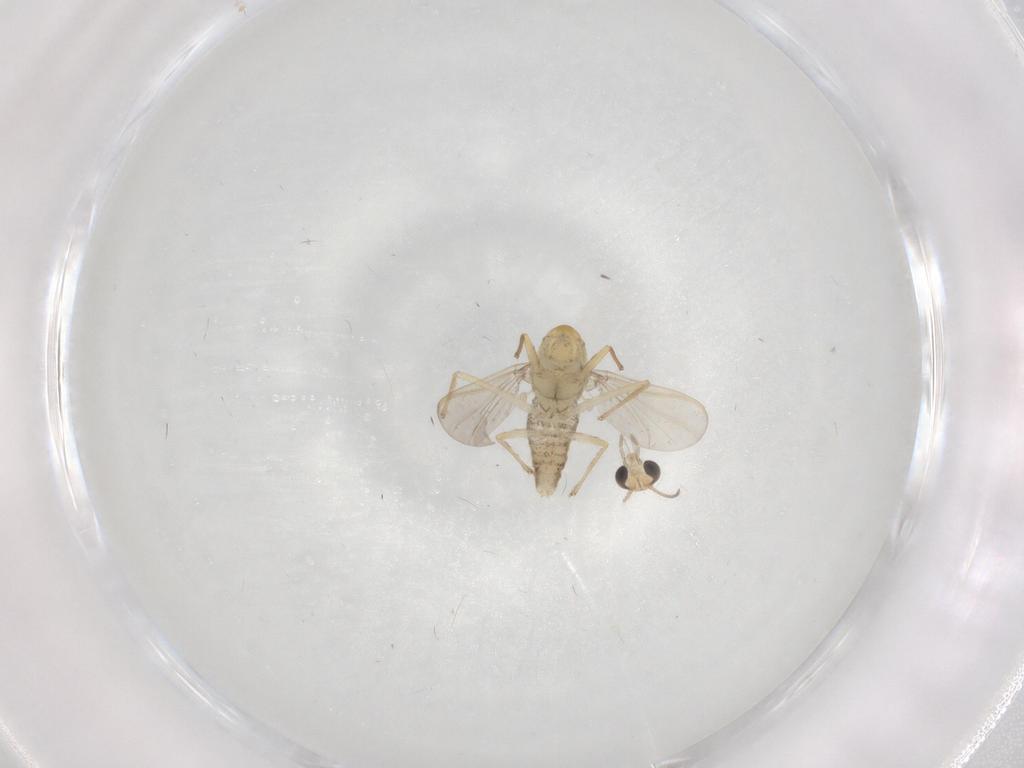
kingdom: Animalia
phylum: Arthropoda
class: Insecta
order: Diptera
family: Chironomidae
